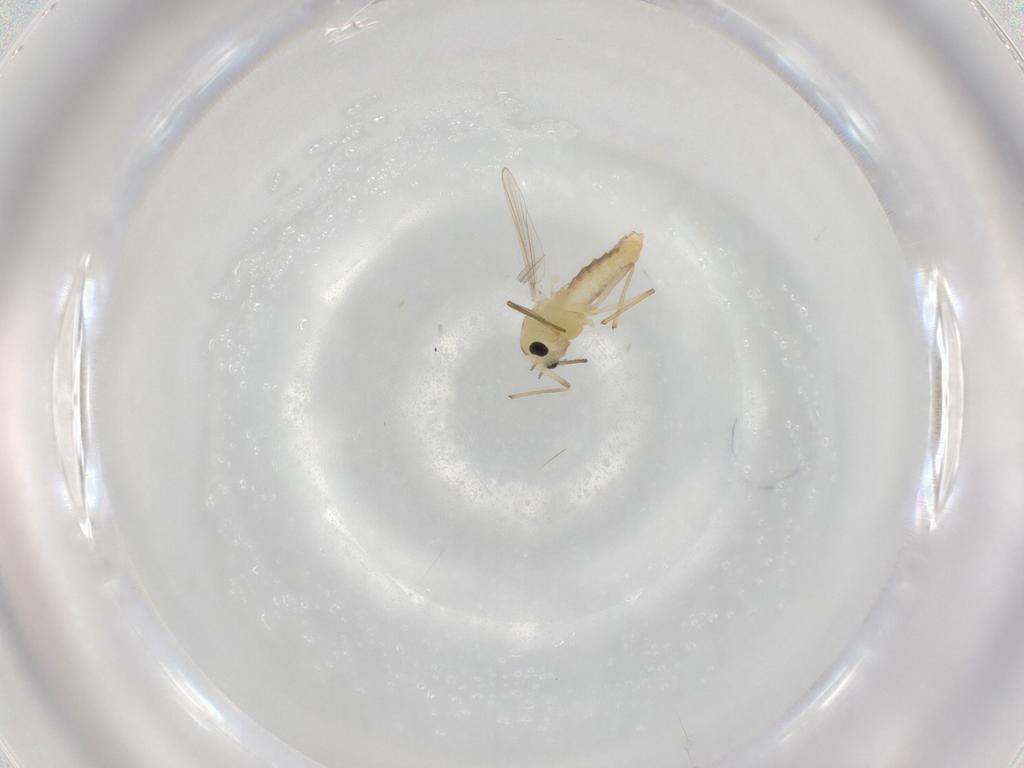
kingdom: Animalia
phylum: Arthropoda
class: Insecta
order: Diptera
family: Chironomidae
